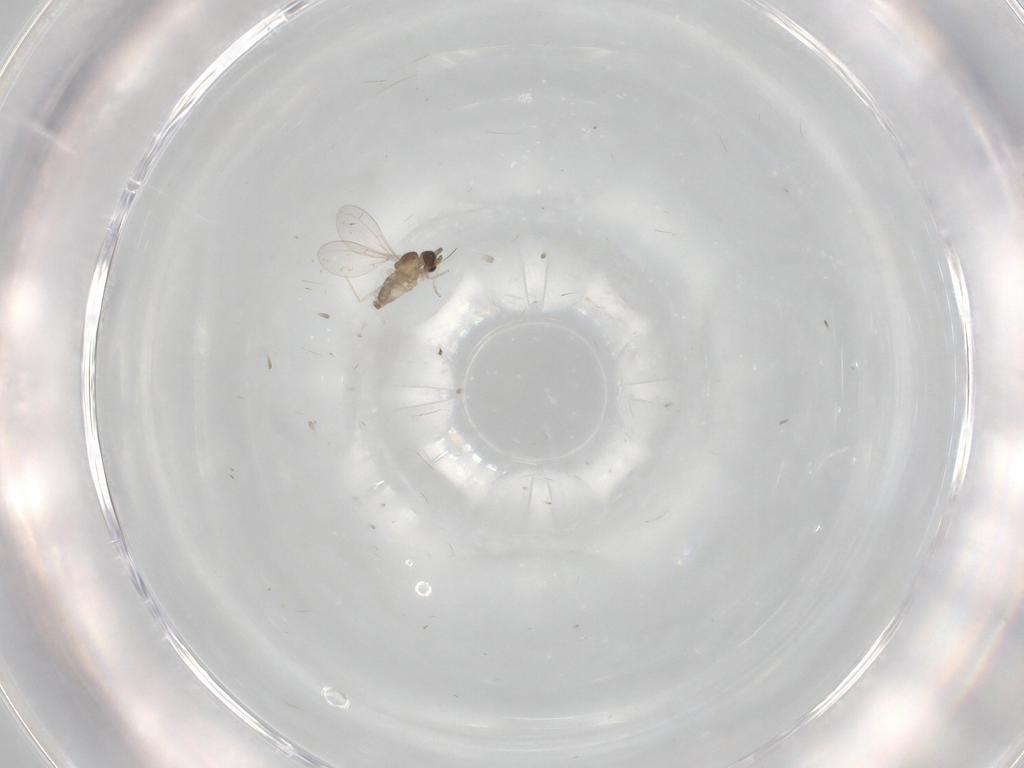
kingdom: Animalia
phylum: Arthropoda
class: Insecta
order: Diptera
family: Cecidomyiidae
